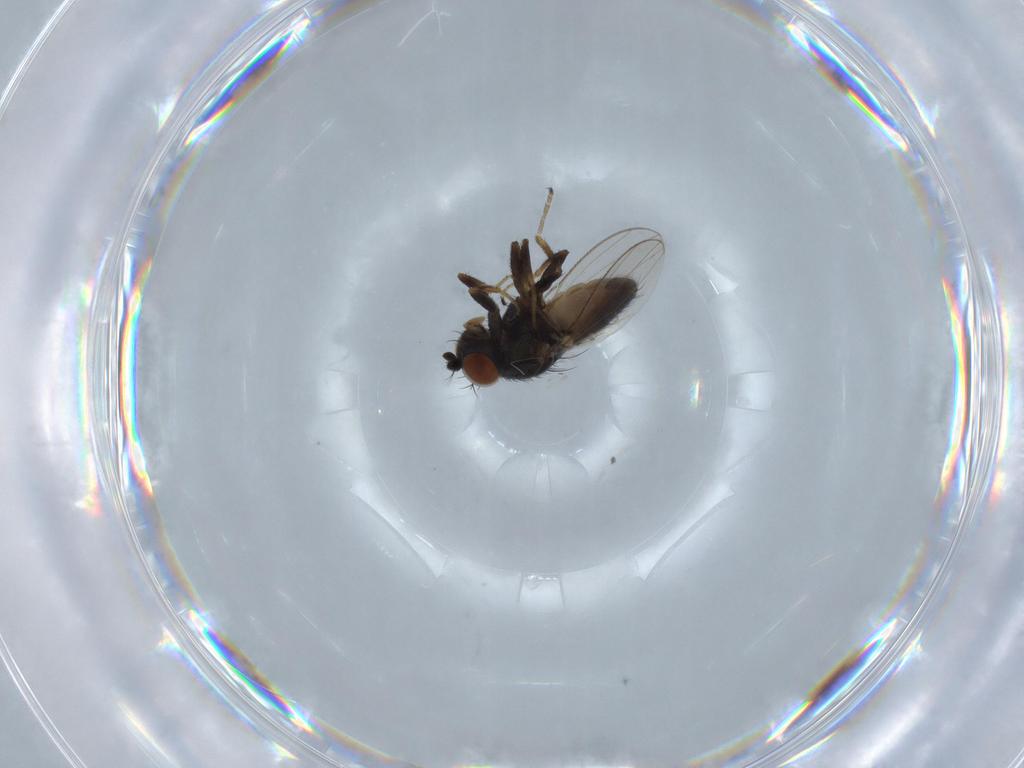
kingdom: Animalia
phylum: Arthropoda
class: Insecta
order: Diptera
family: Ephydridae
